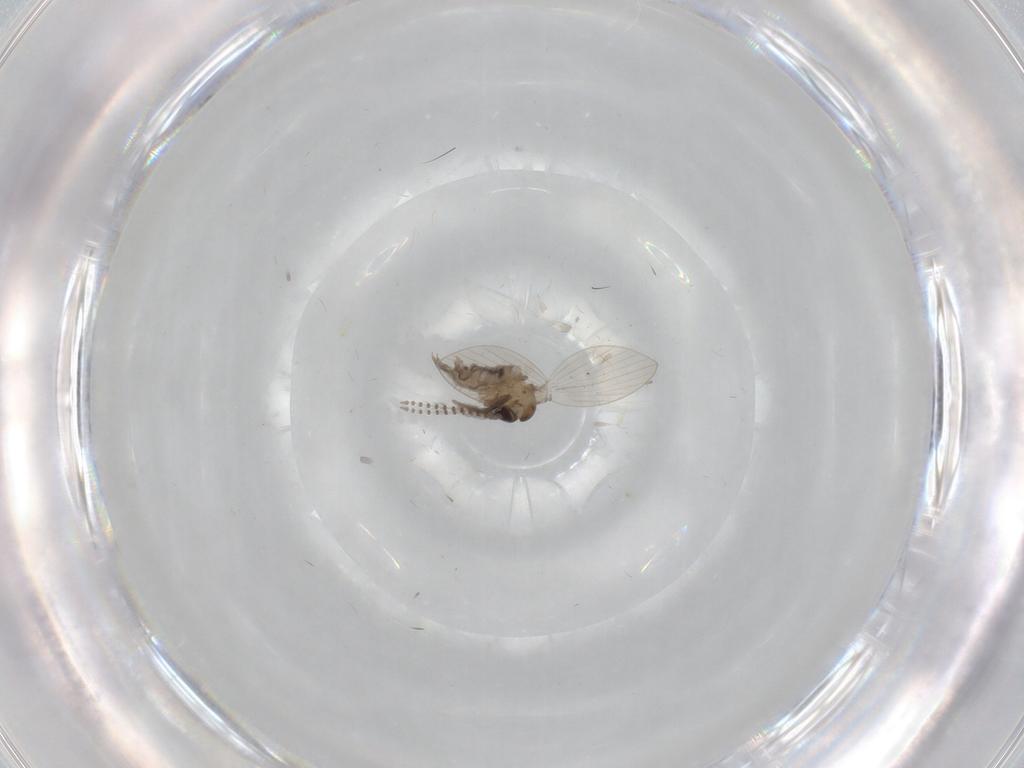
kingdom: Animalia
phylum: Arthropoda
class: Insecta
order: Diptera
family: Psychodidae
